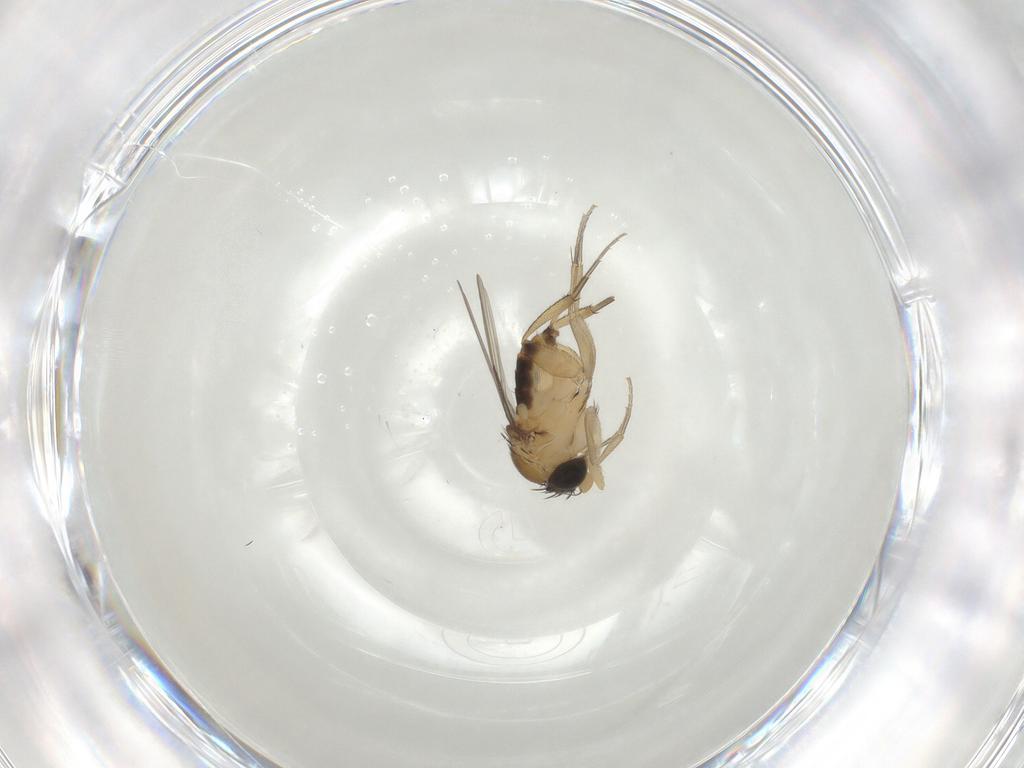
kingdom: Animalia
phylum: Arthropoda
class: Insecta
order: Diptera
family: Phoridae
